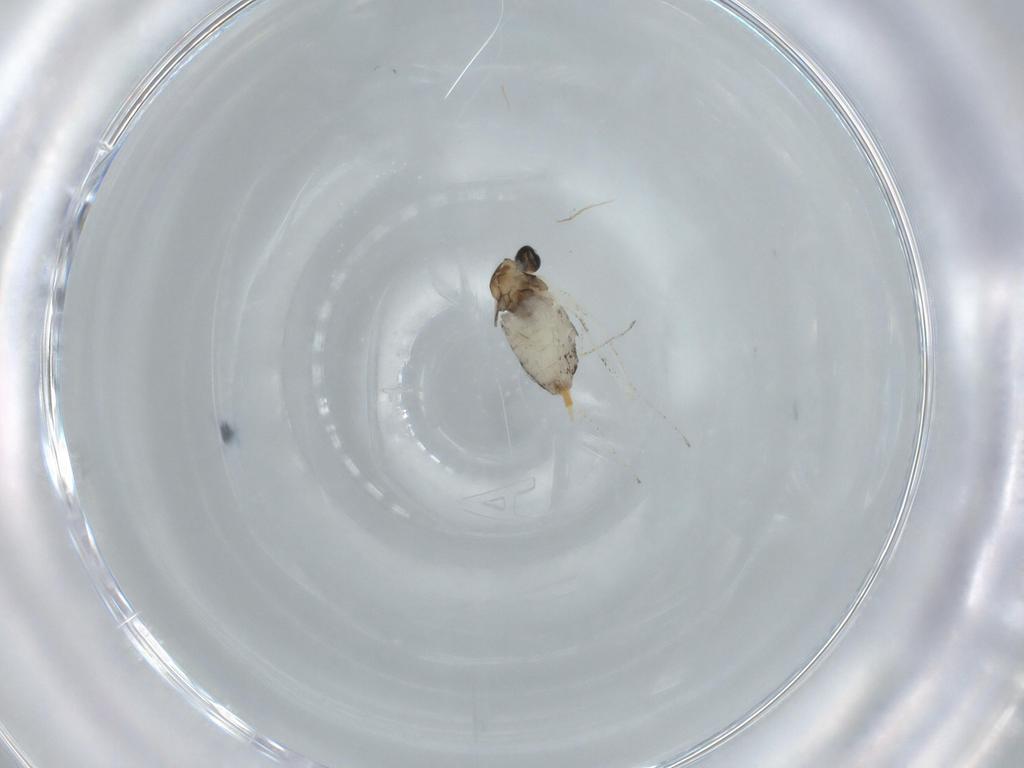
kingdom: Animalia
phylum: Arthropoda
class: Insecta
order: Diptera
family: Cecidomyiidae
